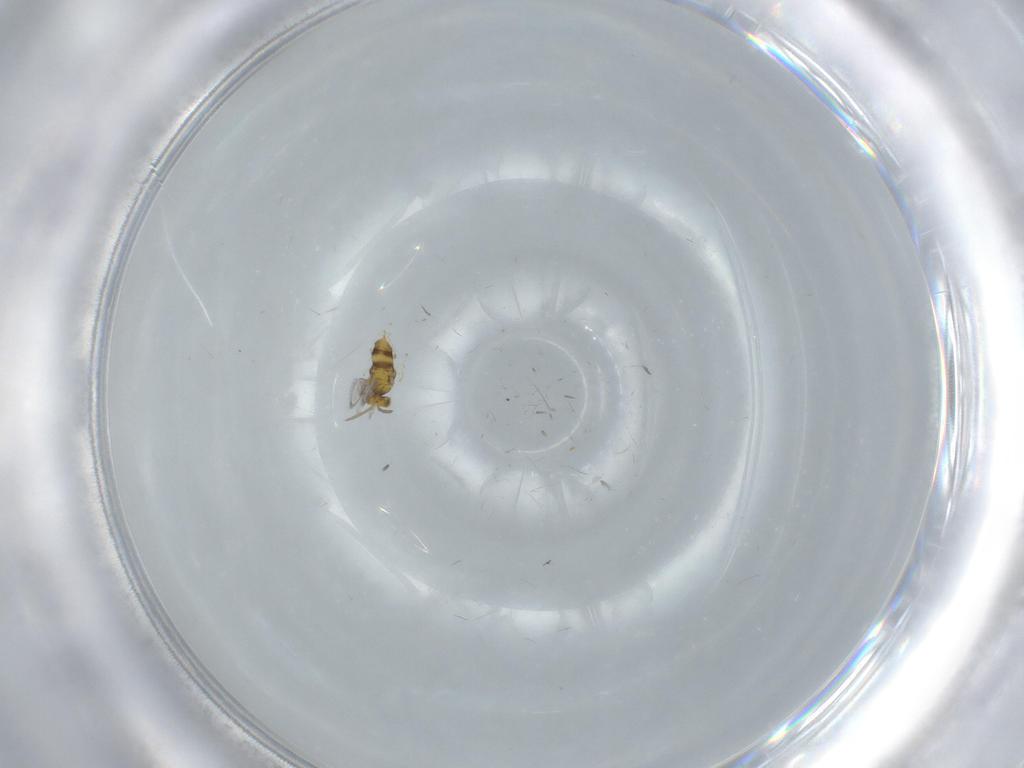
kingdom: Animalia
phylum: Arthropoda
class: Insecta
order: Hymenoptera
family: Aphelinidae
